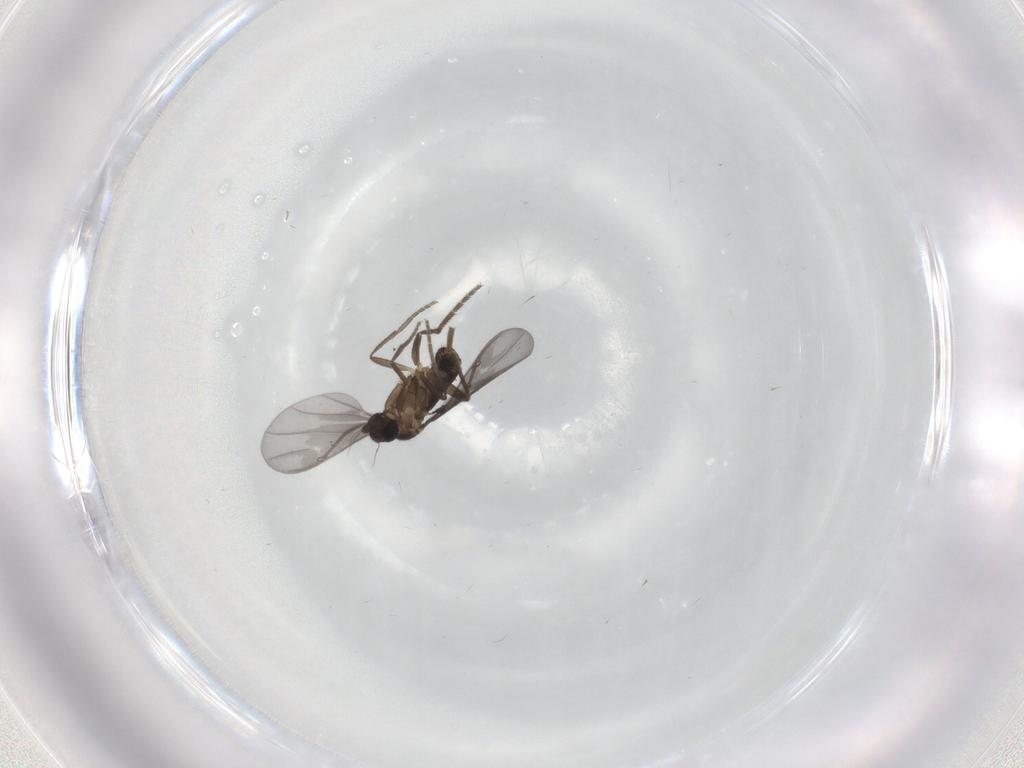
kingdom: Animalia
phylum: Arthropoda
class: Insecta
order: Diptera
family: Phoridae
